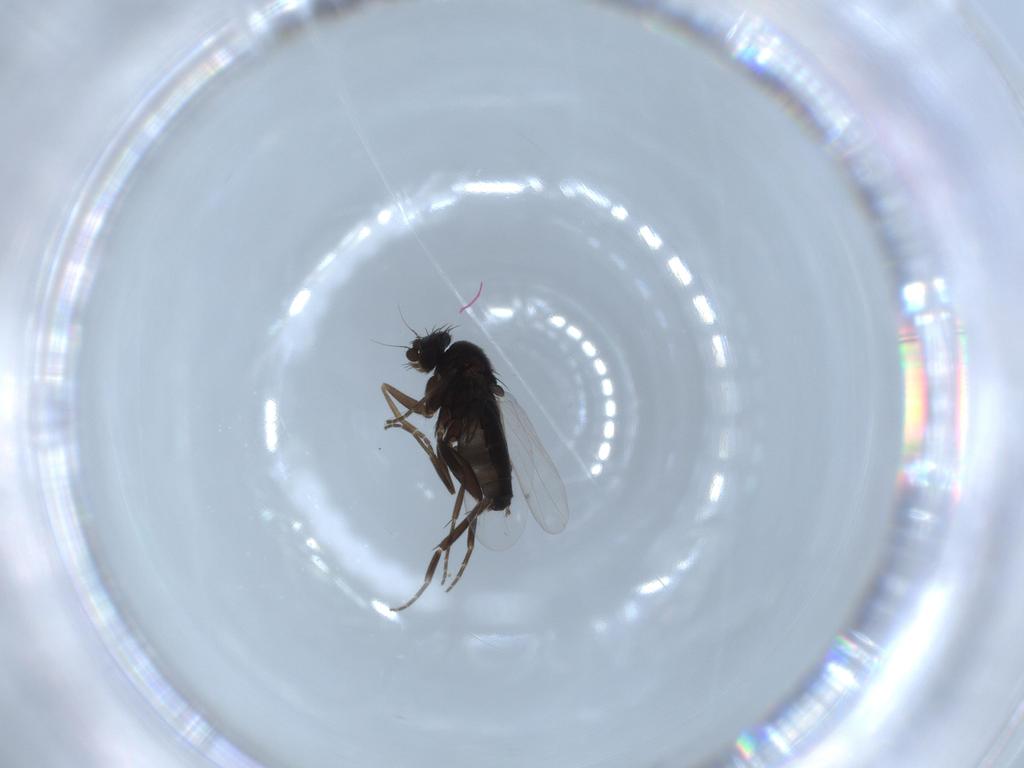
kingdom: Animalia
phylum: Arthropoda
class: Insecta
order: Diptera
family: Phoridae
